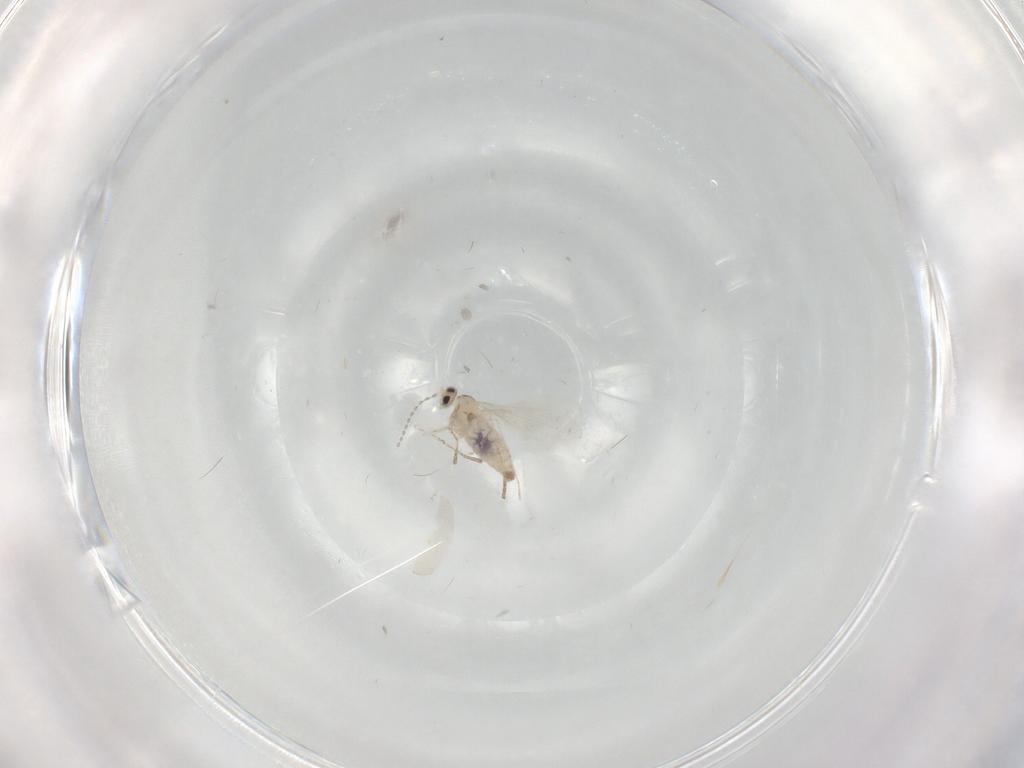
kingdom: Animalia
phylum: Arthropoda
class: Insecta
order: Diptera
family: Cecidomyiidae
